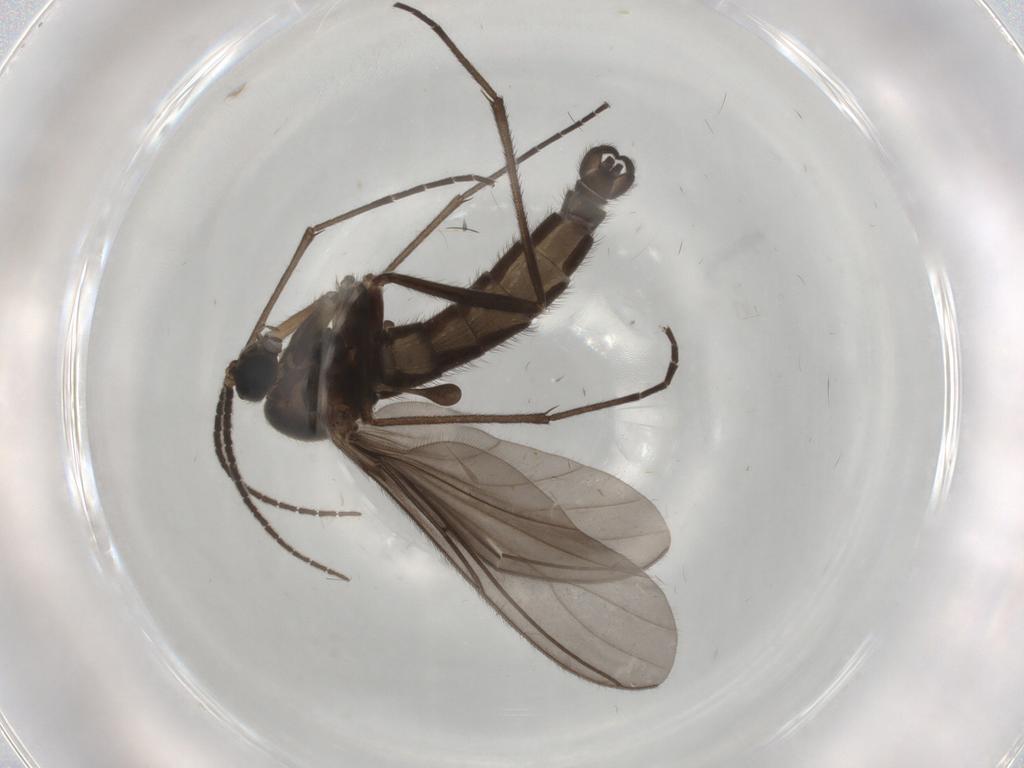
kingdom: Animalia
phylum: Arthropoda
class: Insecta
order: Diptera
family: Sciaridae
